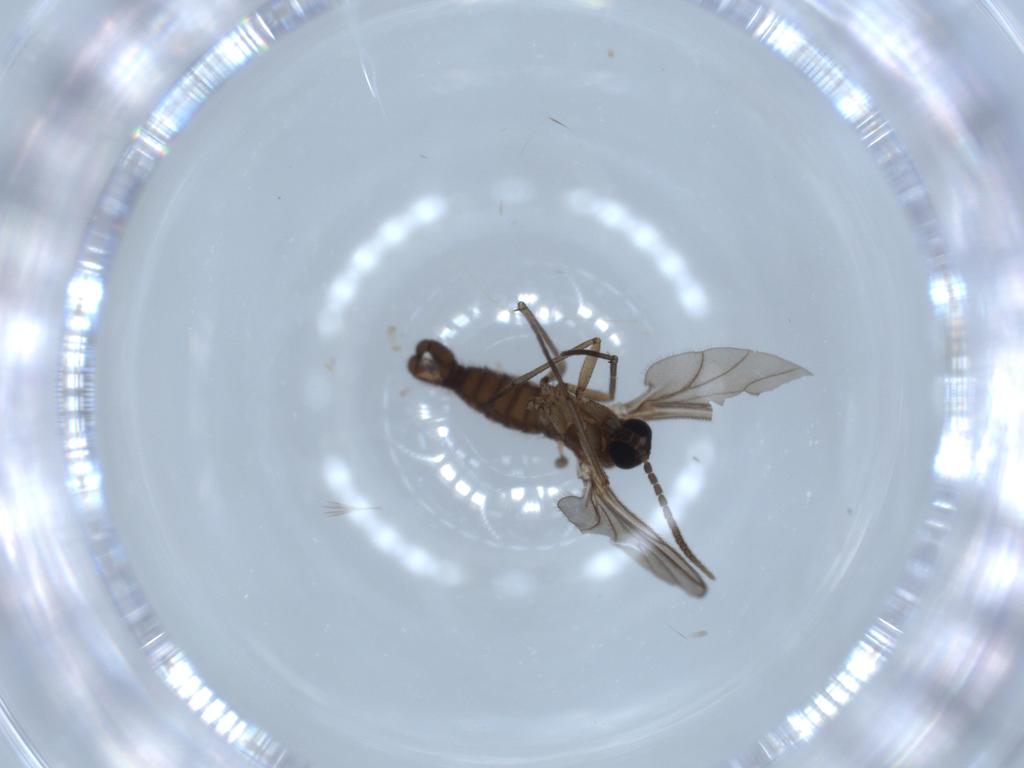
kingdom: Animalia
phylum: Arthropoda
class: Insecta
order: Diptera
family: Sciaridae
